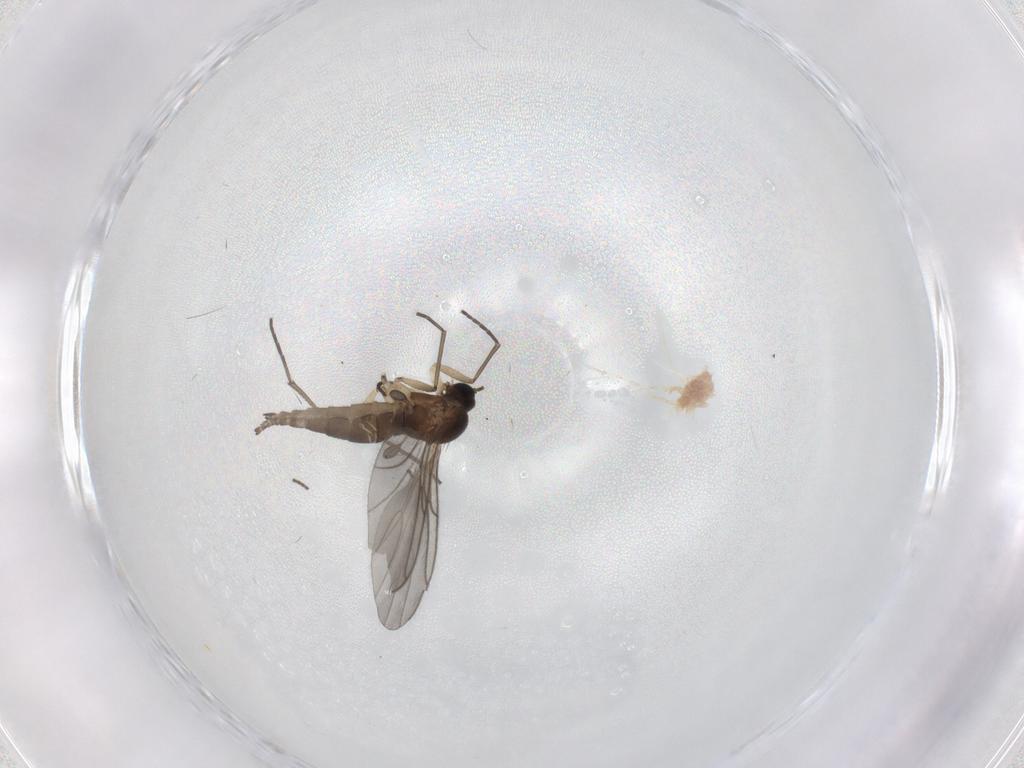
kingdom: Animalia
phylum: Arthropoda
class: Insecta
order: Diptera
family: Sciaridae
